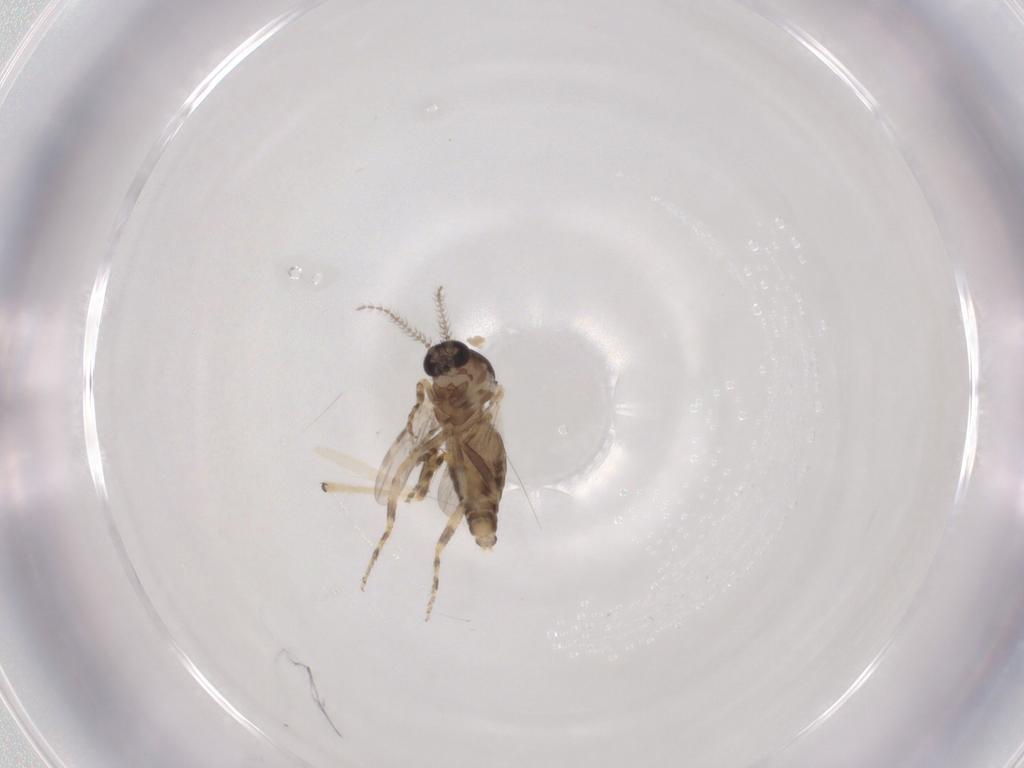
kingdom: Animalia
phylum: Arthropoda
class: Insecta
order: Diptera
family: Ceratopogonidae
